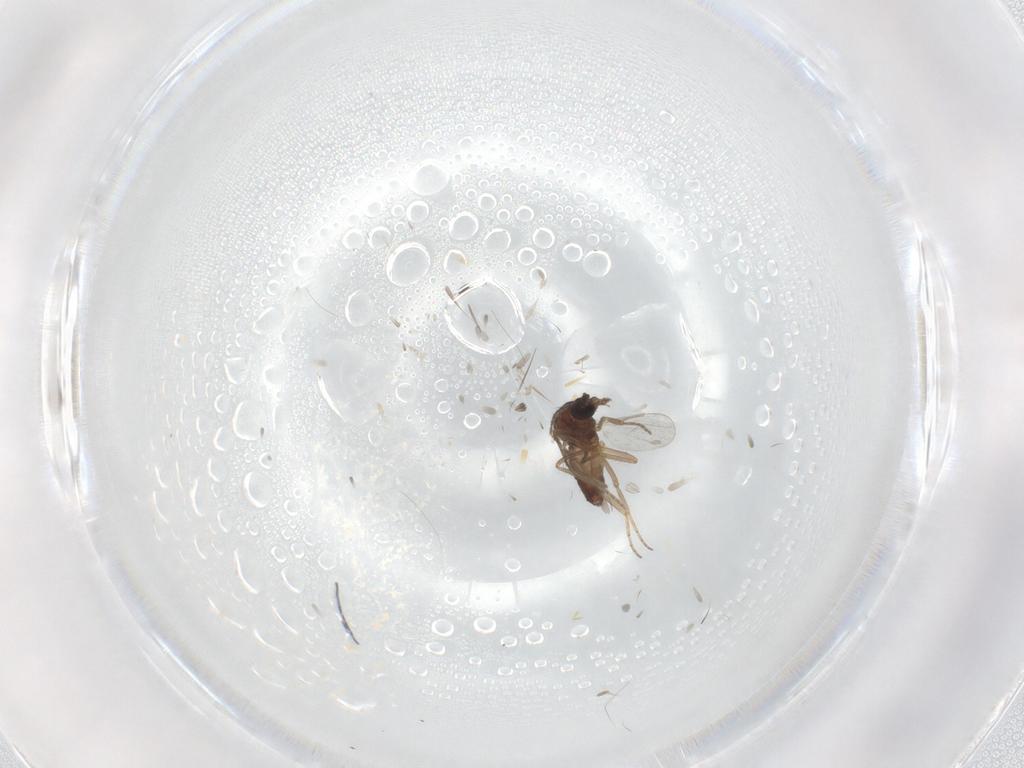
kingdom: Animalia
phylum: Arthropoda
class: Insecta
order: Diptera
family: Ceratopogonidae
